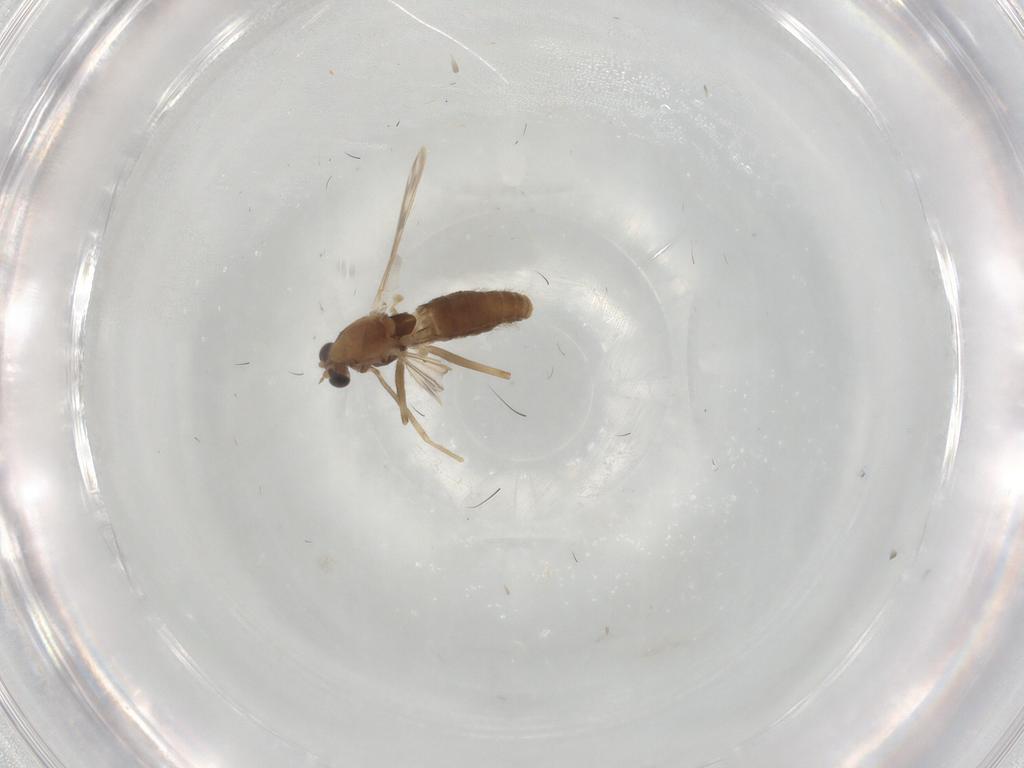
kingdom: Animalia
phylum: Arthropoda
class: Insecta
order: Diptera
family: Chironomidae
